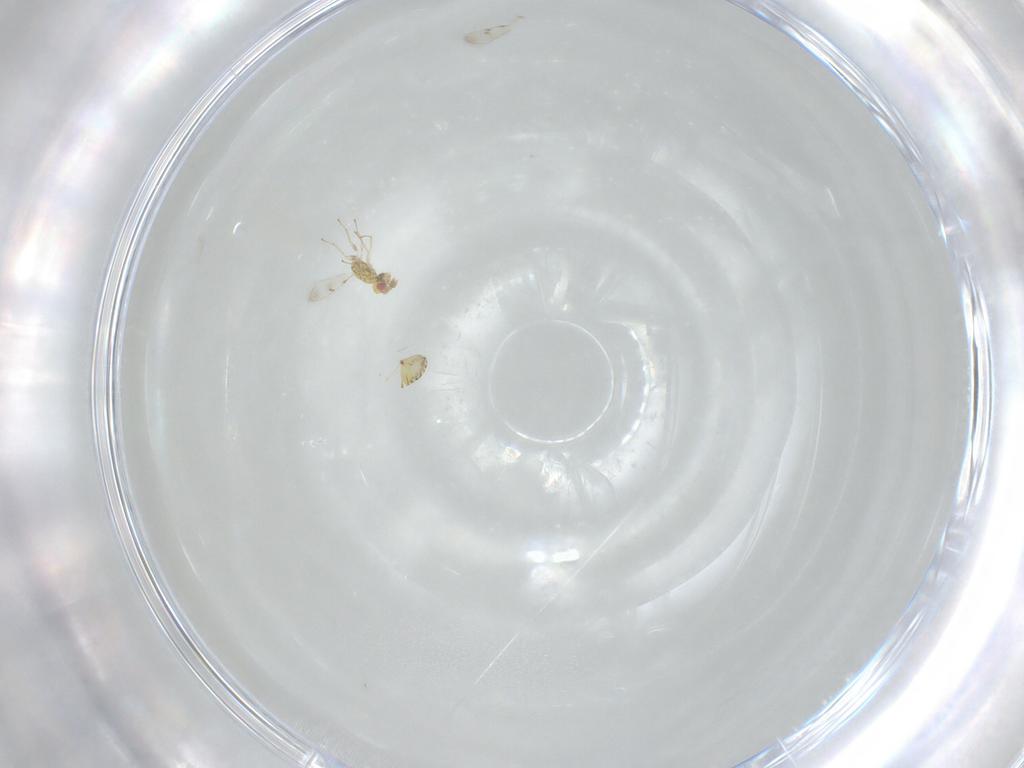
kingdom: Animalia
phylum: Arthropoda
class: Insecta
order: Hymenoptera
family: Eulophidae
